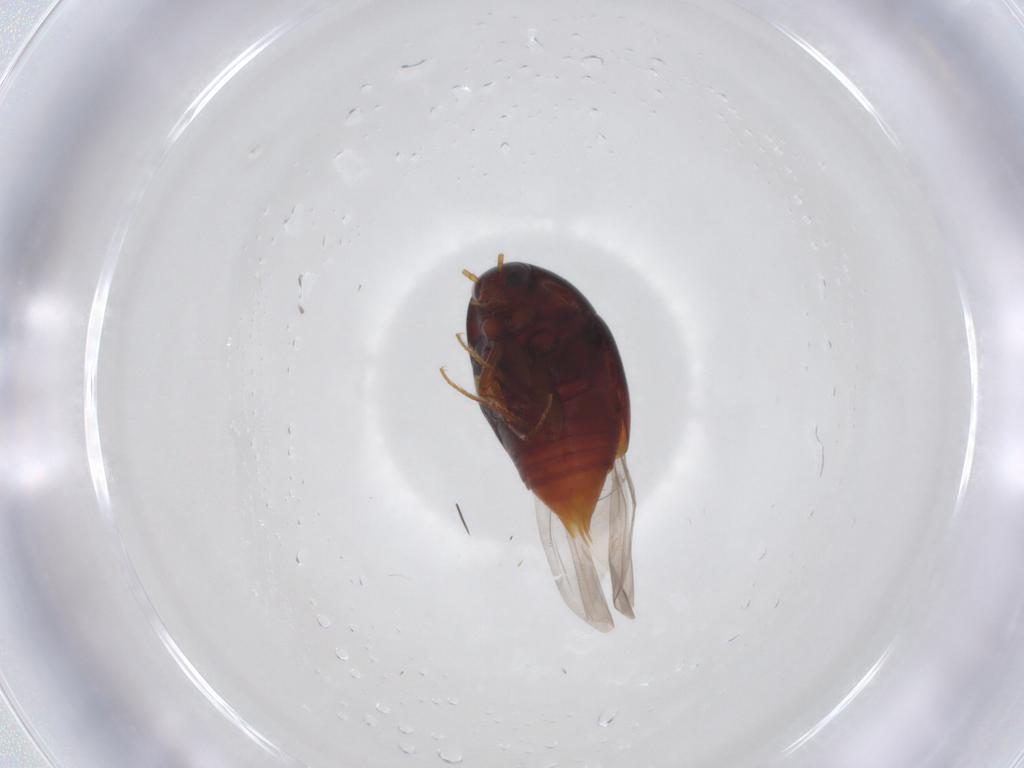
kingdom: Animalia
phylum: Arthropoda
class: Insecta
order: Coleoptera
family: Staphylinidae
